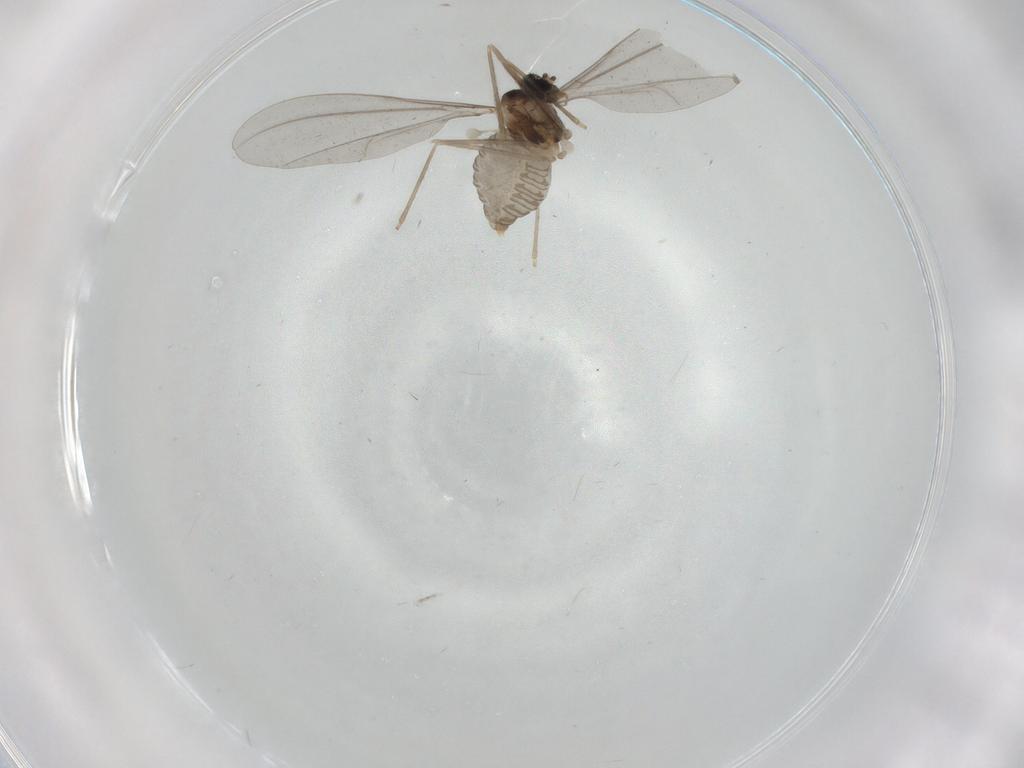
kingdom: Animalia
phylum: Arthropoda
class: Insecta
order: Diptera
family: Cecidomyiidae
